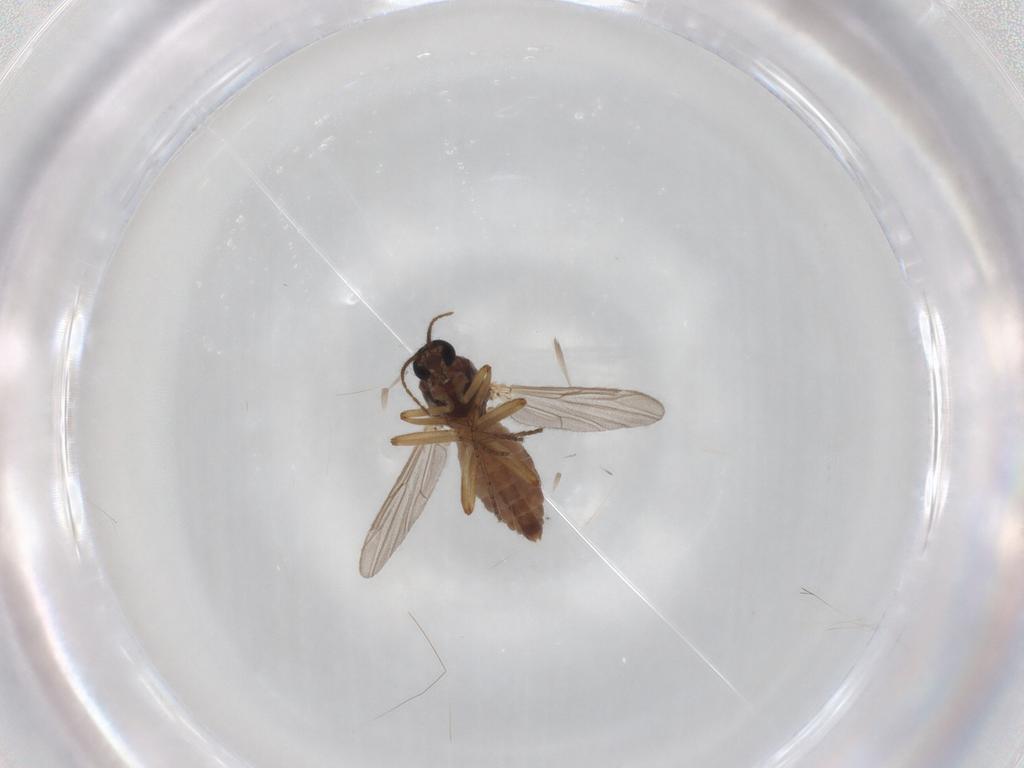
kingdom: Animalia
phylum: Arthropoda
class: Insecta
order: Diptera
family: Ceratopogonidae
